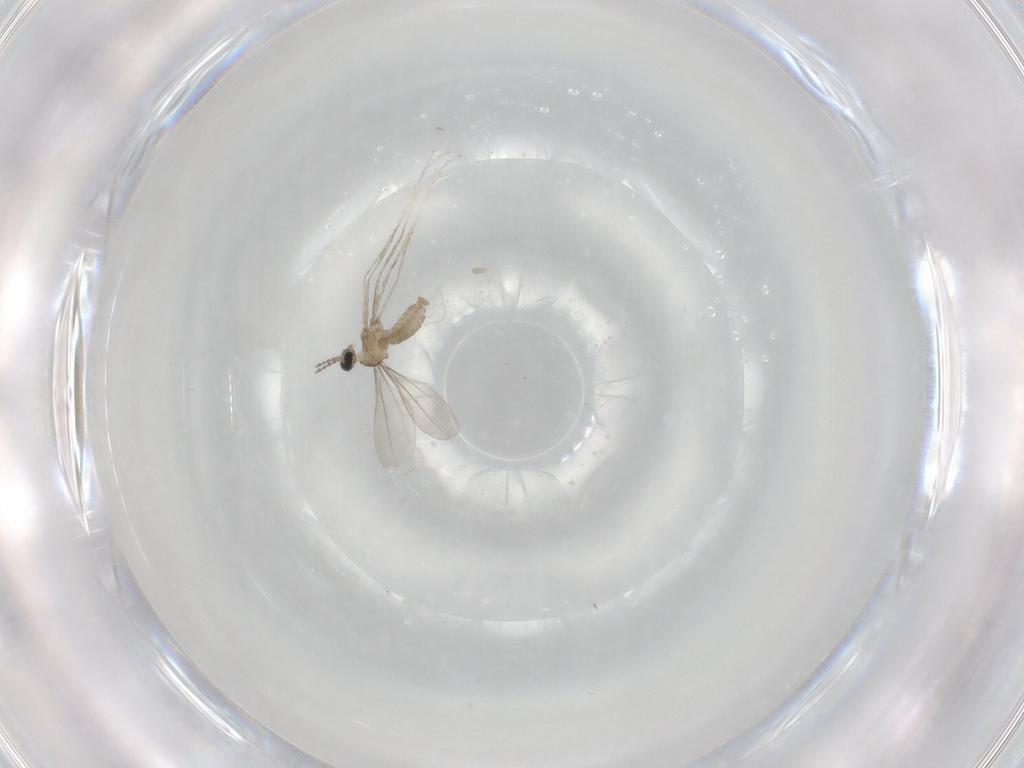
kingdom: Animalia
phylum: Arthropoda
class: Insecta
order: Diptera
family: Cecidomyiidae
